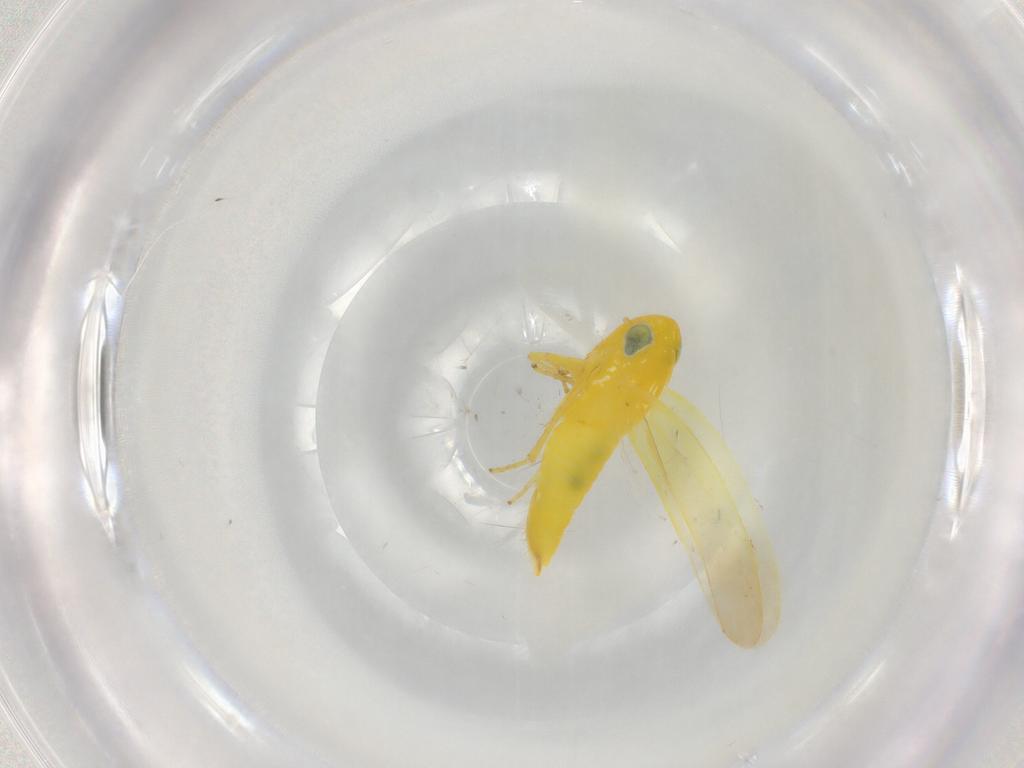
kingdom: Animalia
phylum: Arthropoda
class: Insecta
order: Hemiptera
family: Cicadellidae
